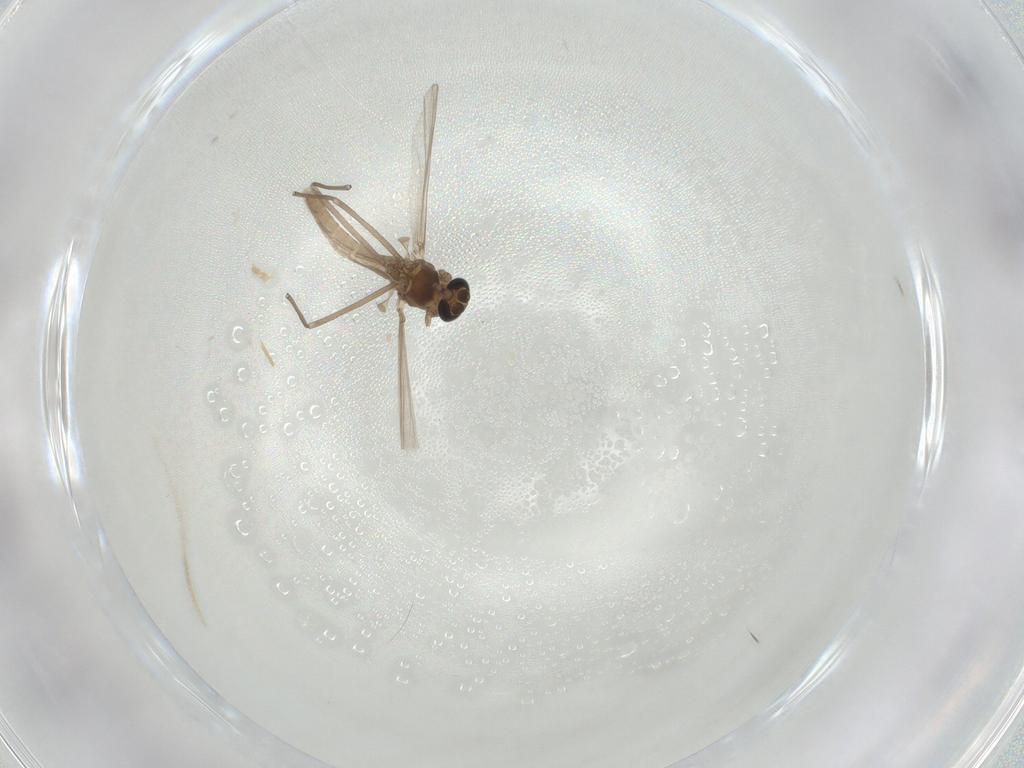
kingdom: Animalia
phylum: Arthropoda
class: Insecta
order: Diptera
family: Chironomidae
